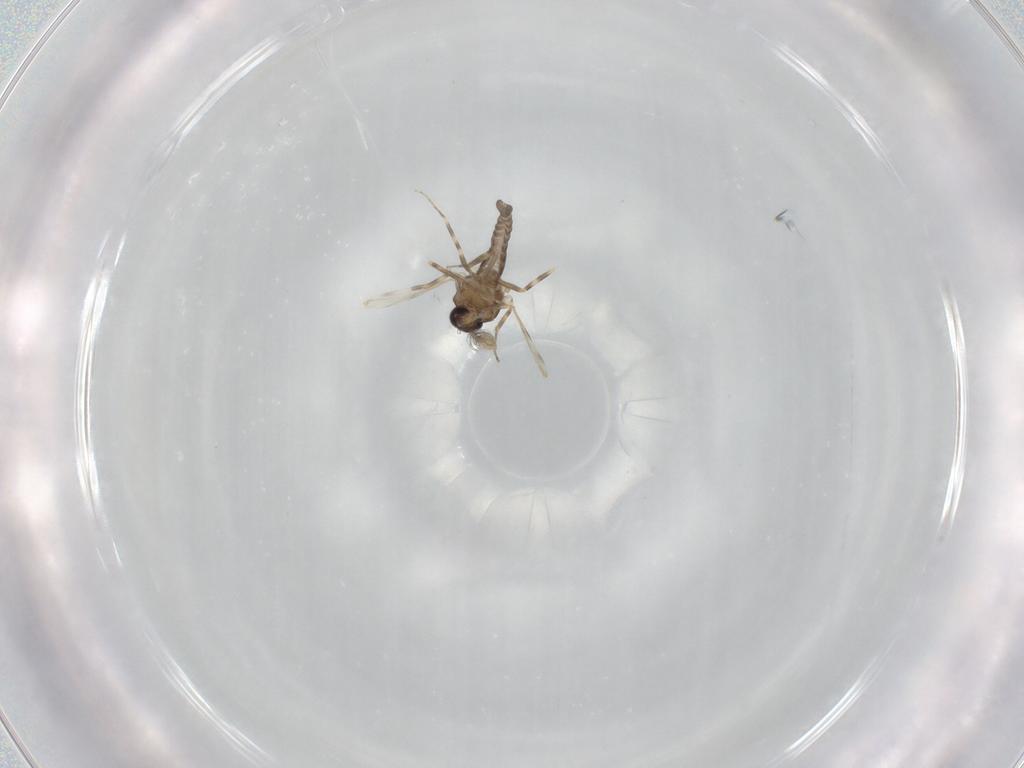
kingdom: Animalia
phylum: Arthropoda
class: Insecta
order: Diptera
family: Ceratopogonidae
